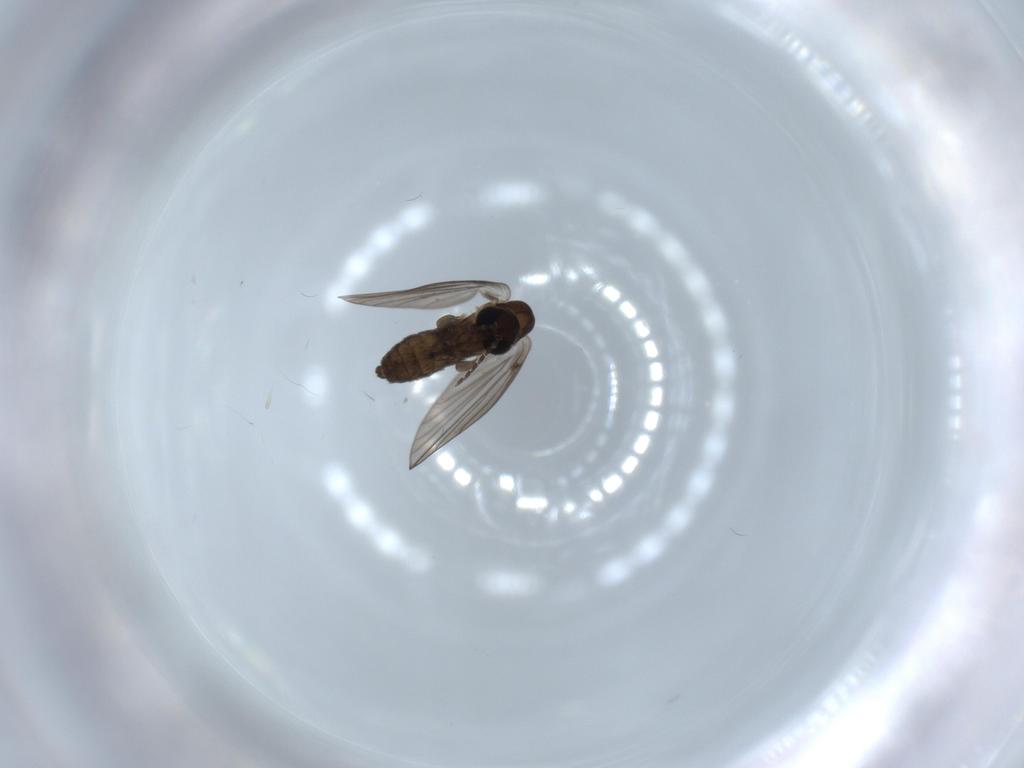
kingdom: Animalia
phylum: Arthropoda
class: Insecta
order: Diptera
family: Psychodidae
